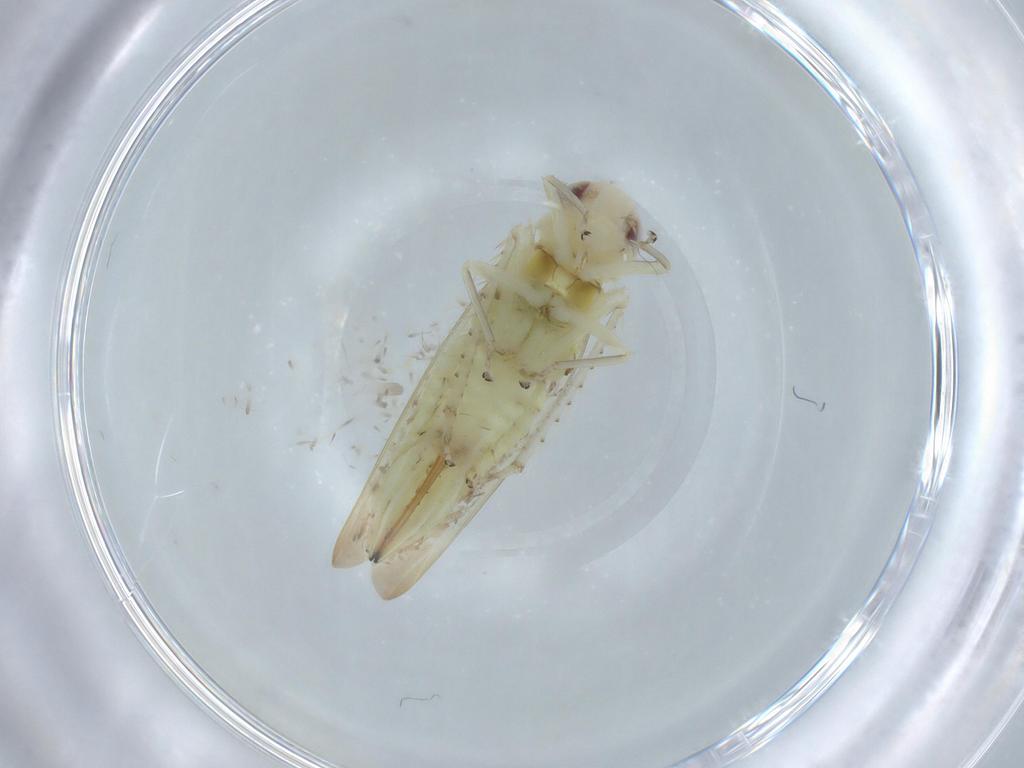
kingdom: Animalia
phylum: Arthropoda
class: Insecta
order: Hemiptera
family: Cicadellidae
